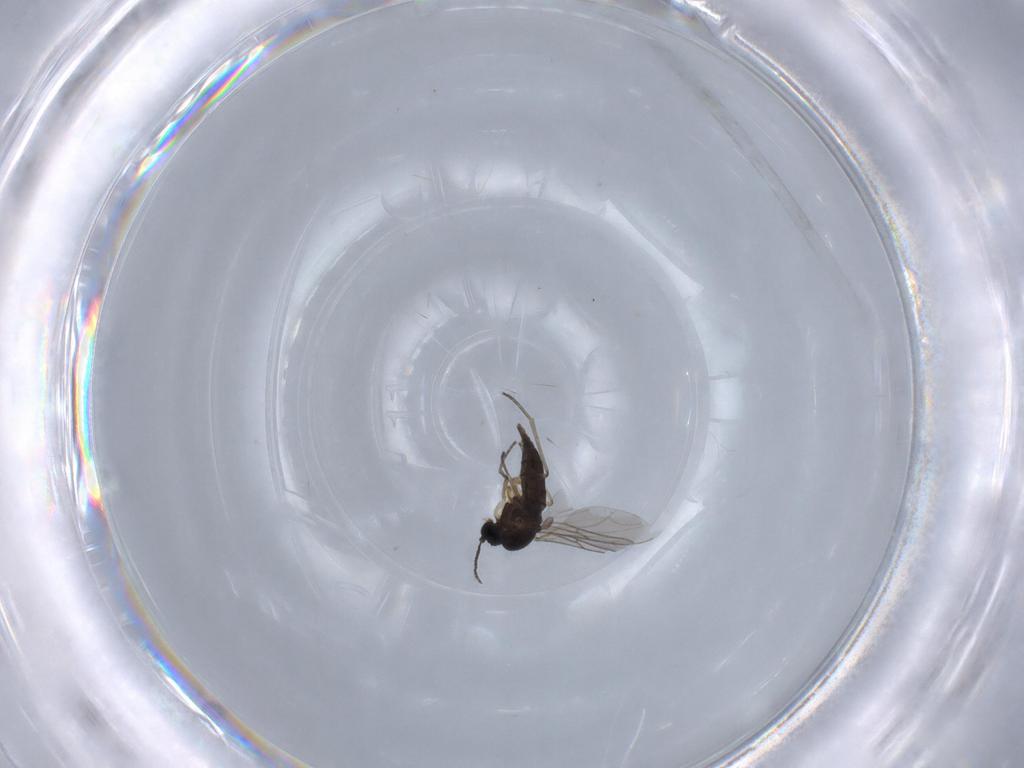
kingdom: Animalia
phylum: Arthropoda
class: Insecta
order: Diptera
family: Sciaridae
